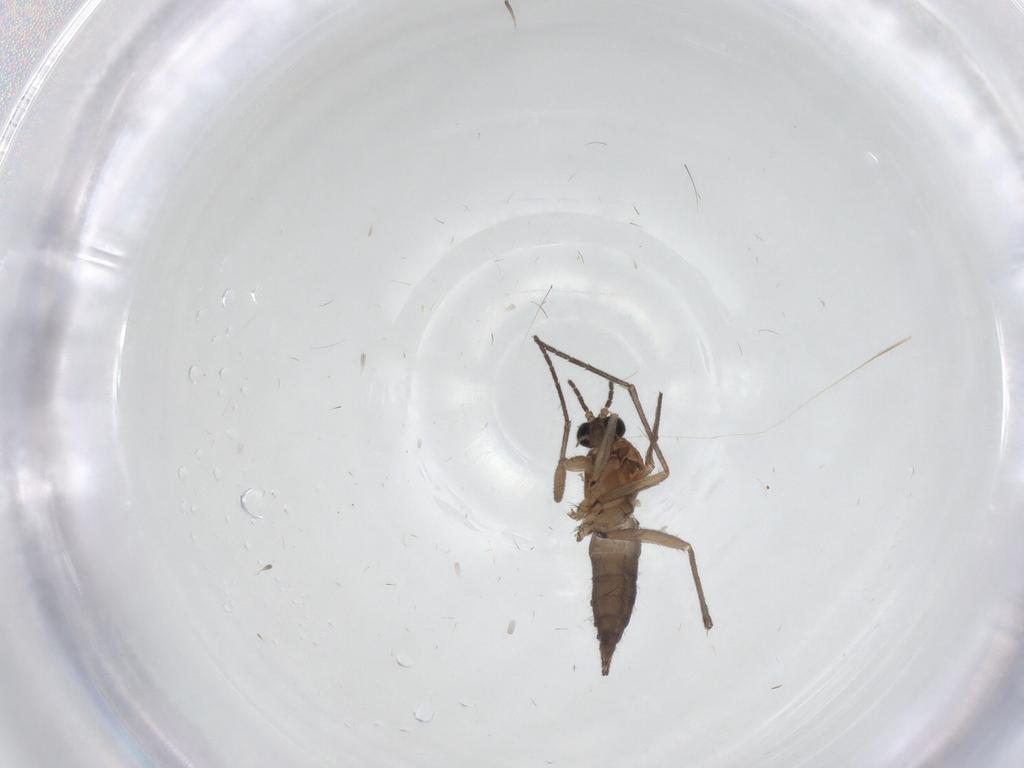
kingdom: Animalia
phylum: Arthropoda
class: Insecta
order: Diptera
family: Sciaridae
